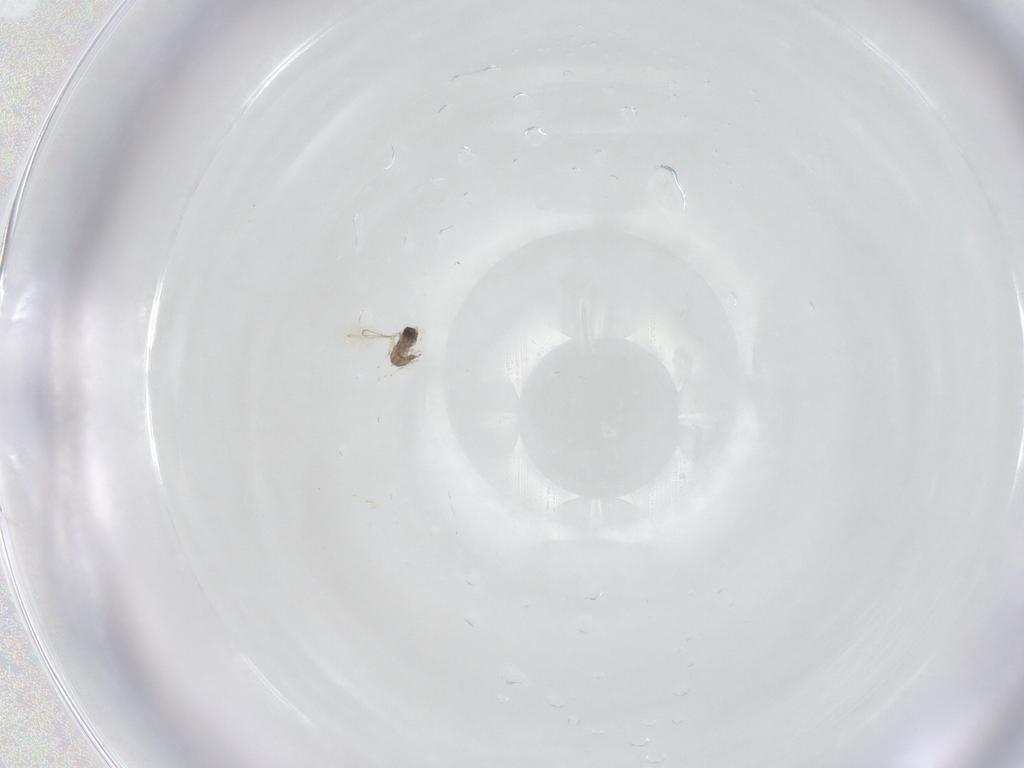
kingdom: Animalia
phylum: Arthropoda
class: Insecta
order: Hymenoptera
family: Mymaridae
